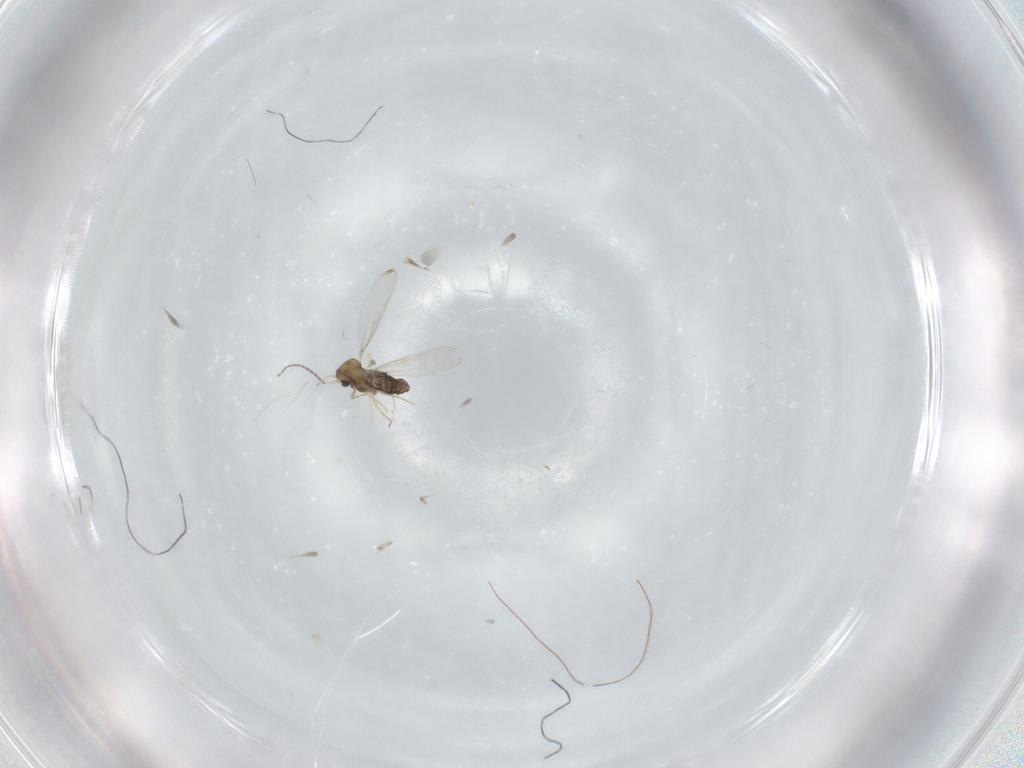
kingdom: Animalia
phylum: Arthropoda
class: Insecta
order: Diptera
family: Chironomidae
